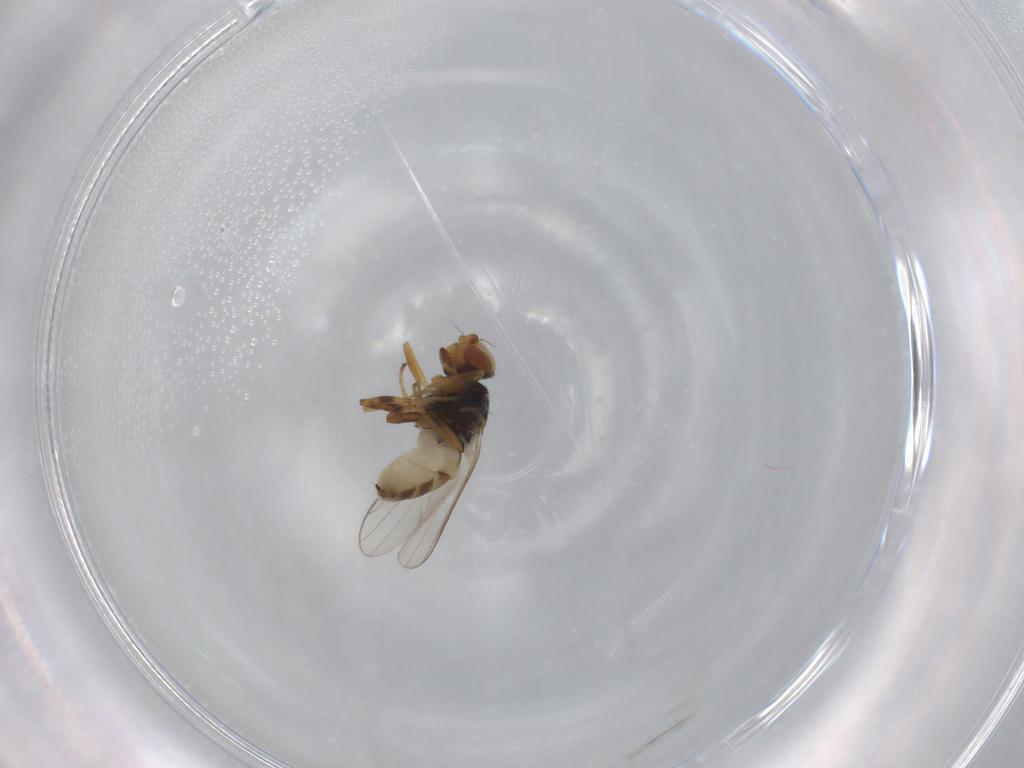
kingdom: Animalia
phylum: Arthropoda
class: Insecta
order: Diptera
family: Chloropidae
